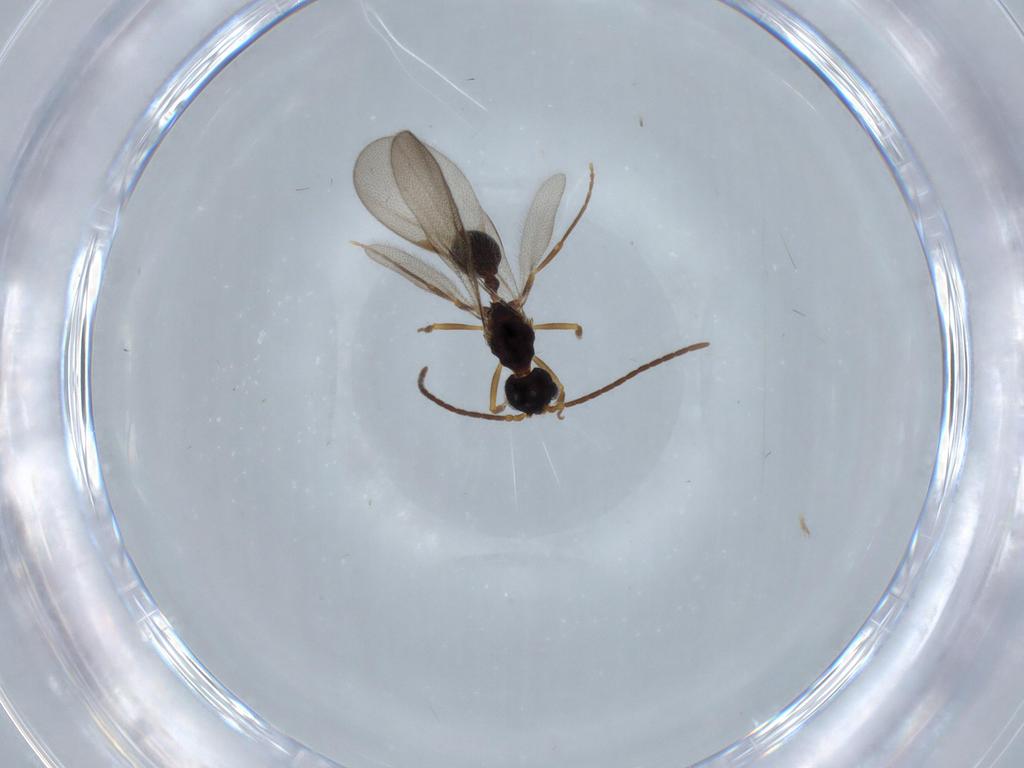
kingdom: Animalia
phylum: Arthropoda
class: Insecta
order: Hymenoptera
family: Formicidae
